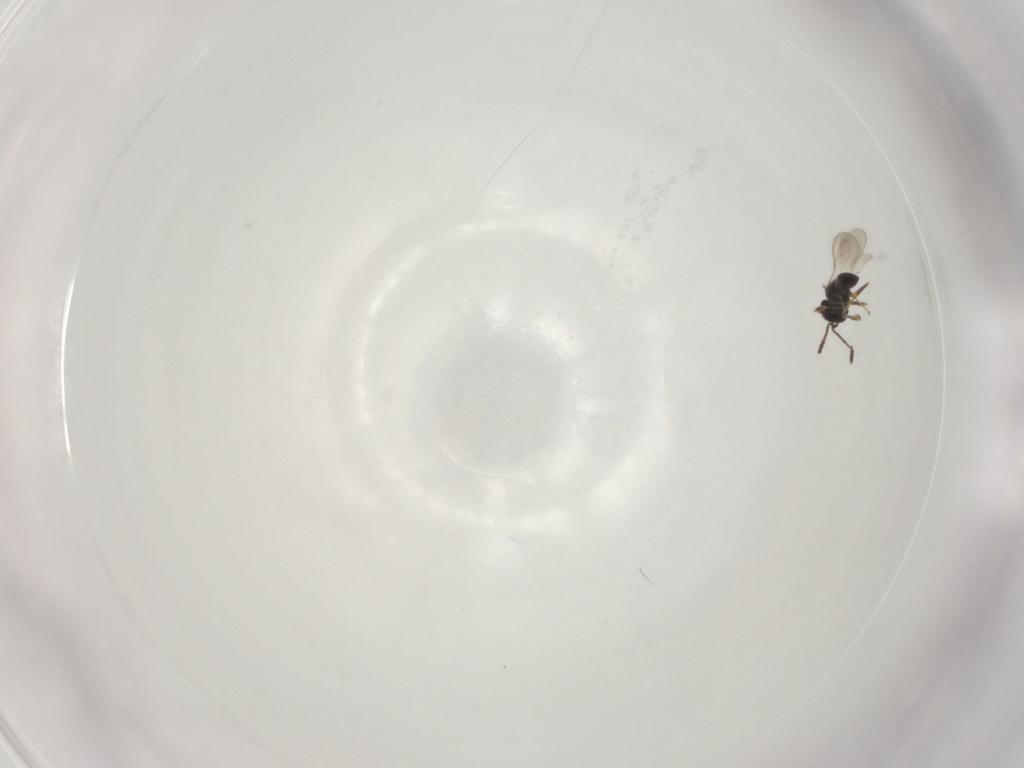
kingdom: Animalia
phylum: Arthropoda
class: Insecta
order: Hymenoptera
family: Scelionidae
